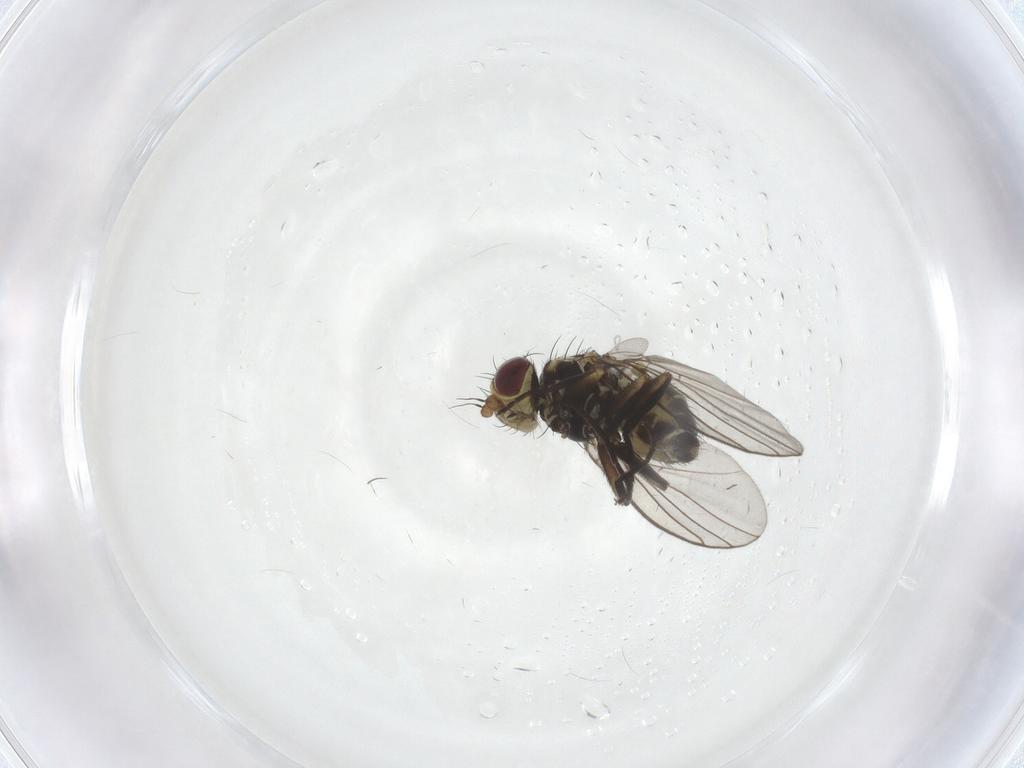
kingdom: Animalia
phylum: Arthropoda
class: Insecta
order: Diptera
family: Agromyzidae
